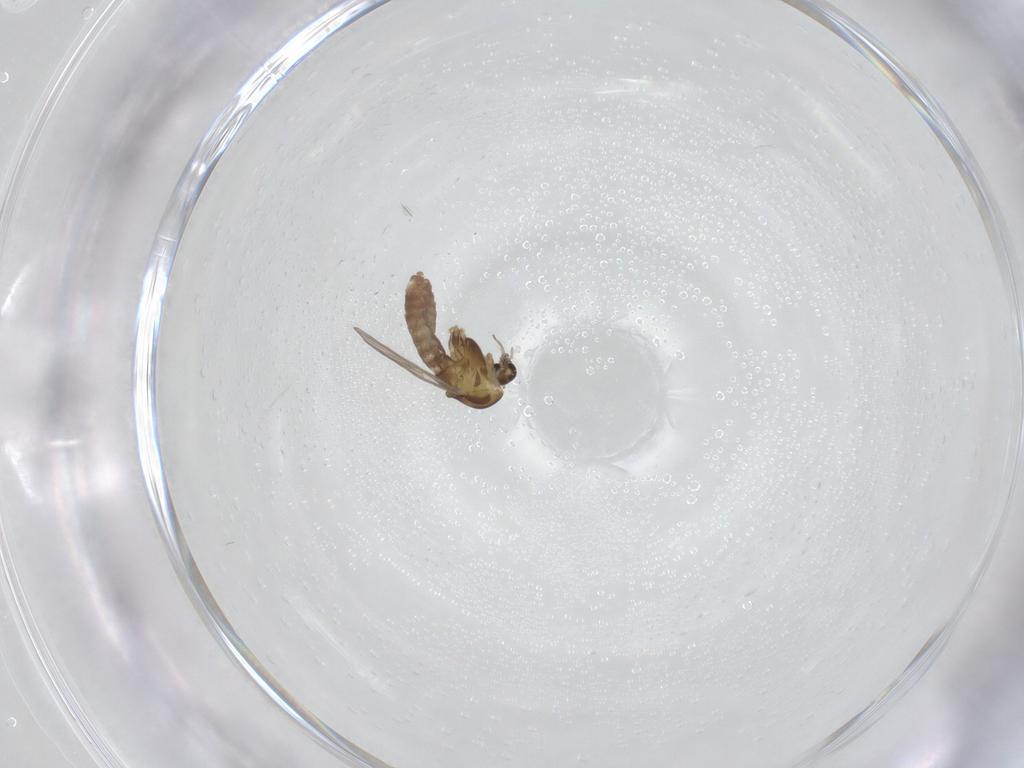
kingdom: Animalia
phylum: Arthropoda
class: Insecta
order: Diptera
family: Chironomidae
